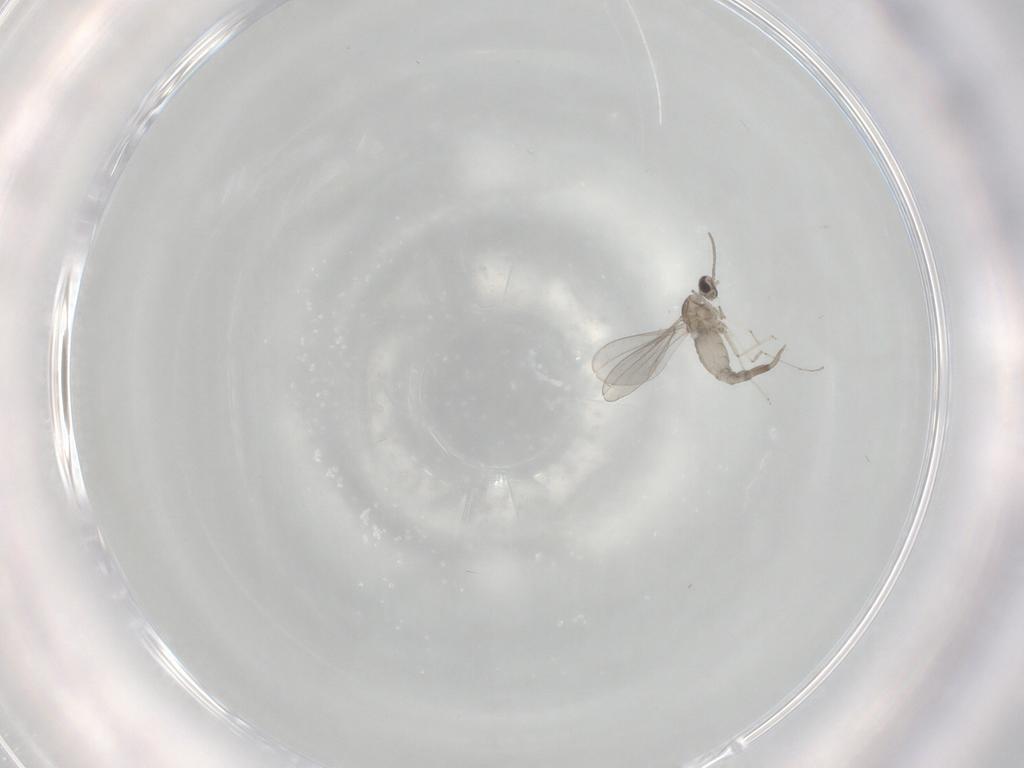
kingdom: Animalia
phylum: Arthropoda
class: Insecta
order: Diptera
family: Cecidomyiidae
